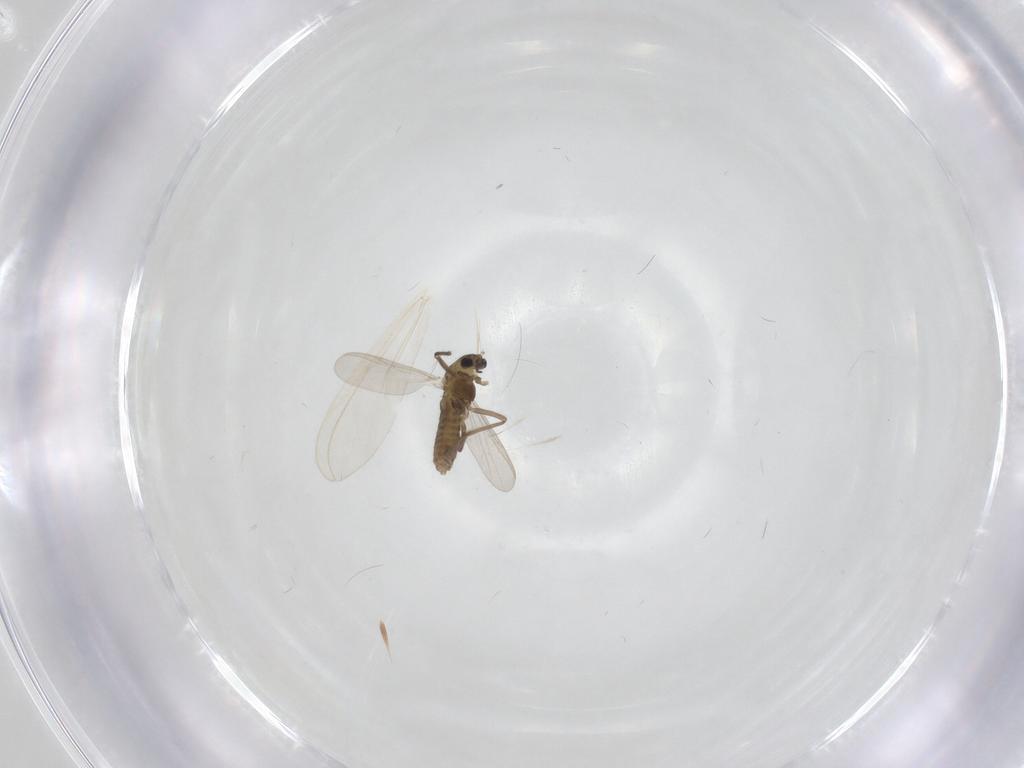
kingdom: Animalia
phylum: Arthropoda
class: Insecta
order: Diptera
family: Chironomidae
